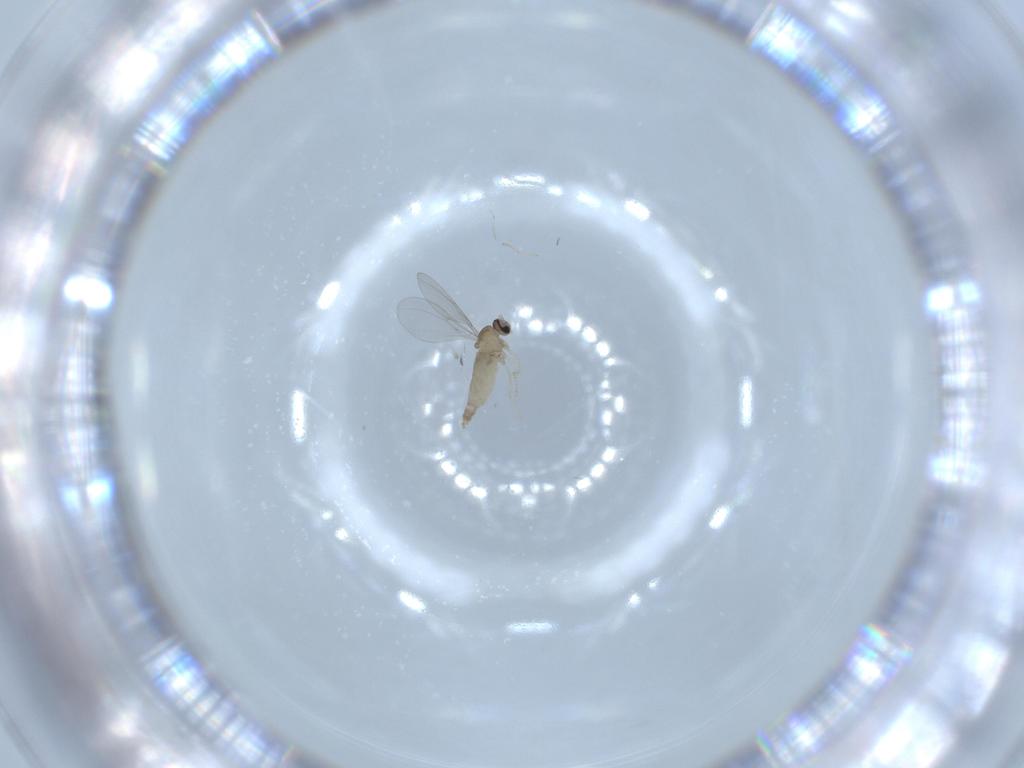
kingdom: Animalia
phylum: Arthropoda
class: Insecta
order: Diptera
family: Cecidomyiidae
